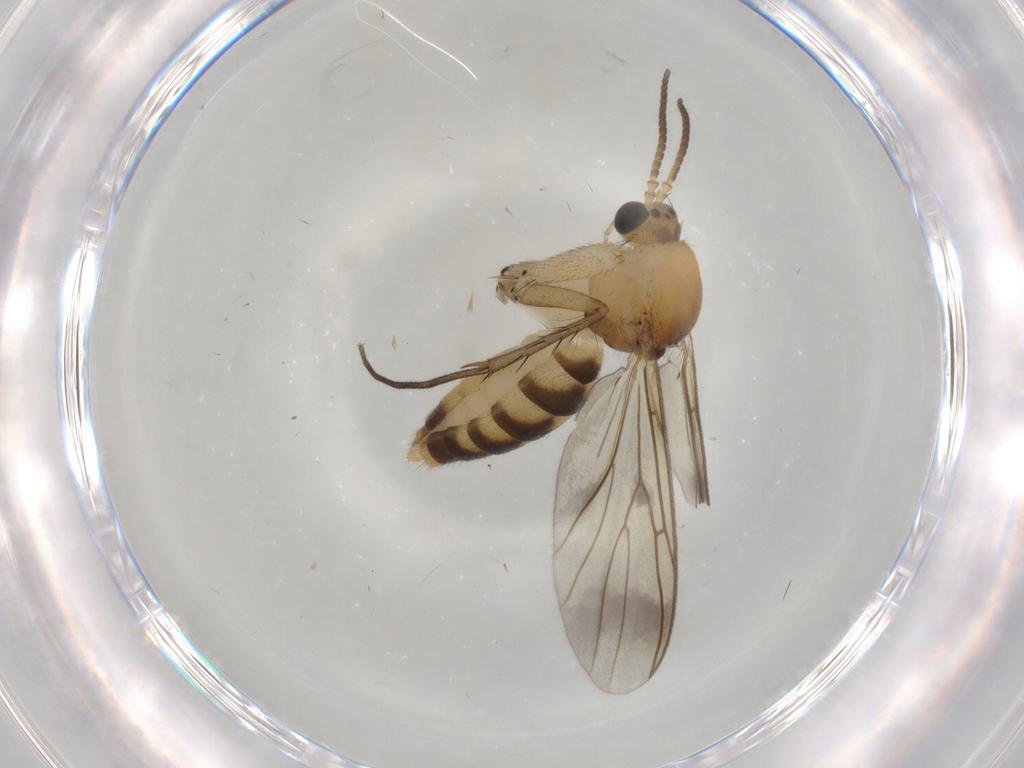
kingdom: Animalia
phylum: Arthropoda
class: Insecta
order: Diptera
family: Mycetophilidae
